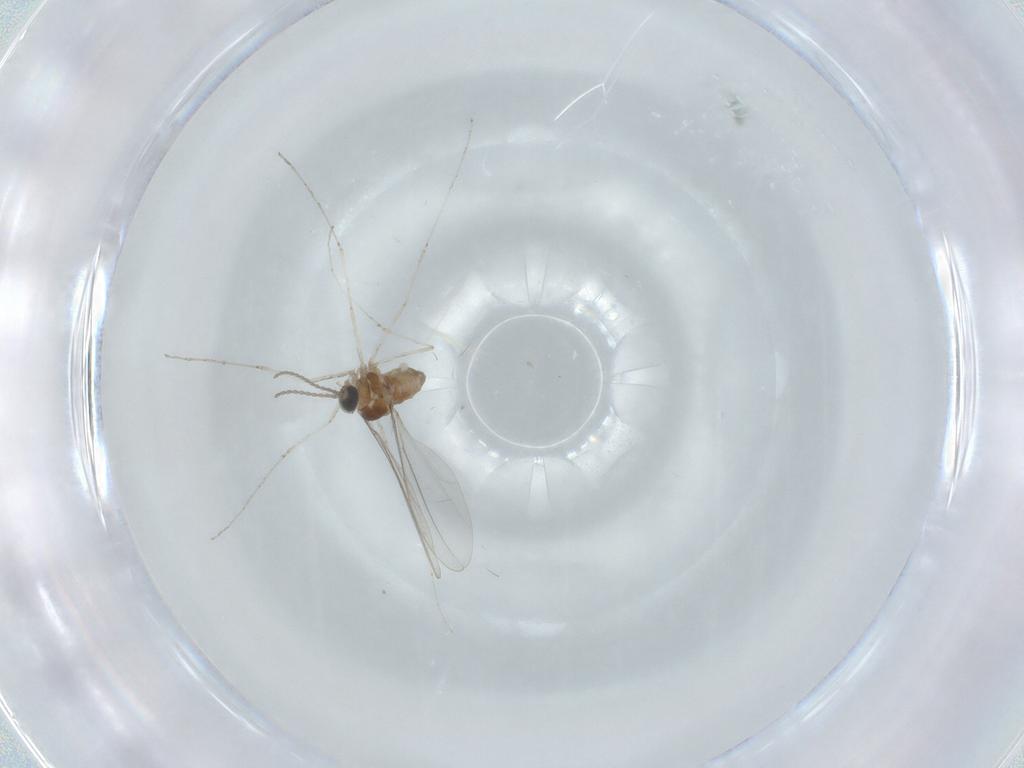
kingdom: Animalia
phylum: Arthropoda
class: Insecta
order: Diptera
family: Cecidomyiidae
